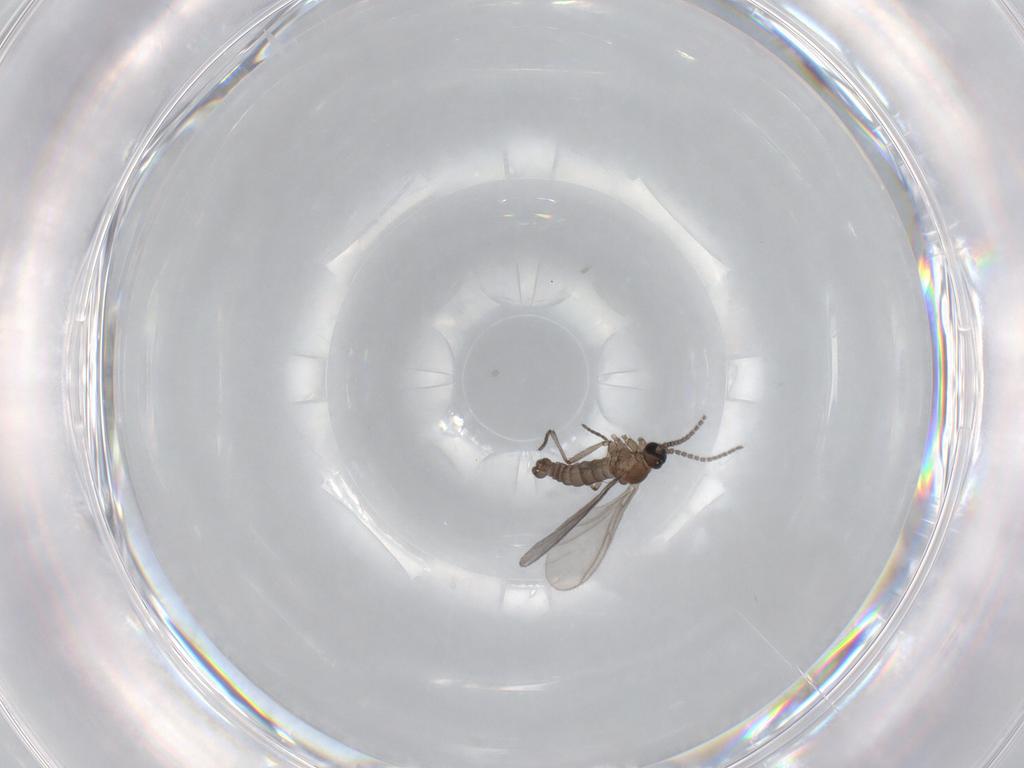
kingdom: Animalia
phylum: Arthropoda
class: Insecta
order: Diptera
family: Sciaridae
